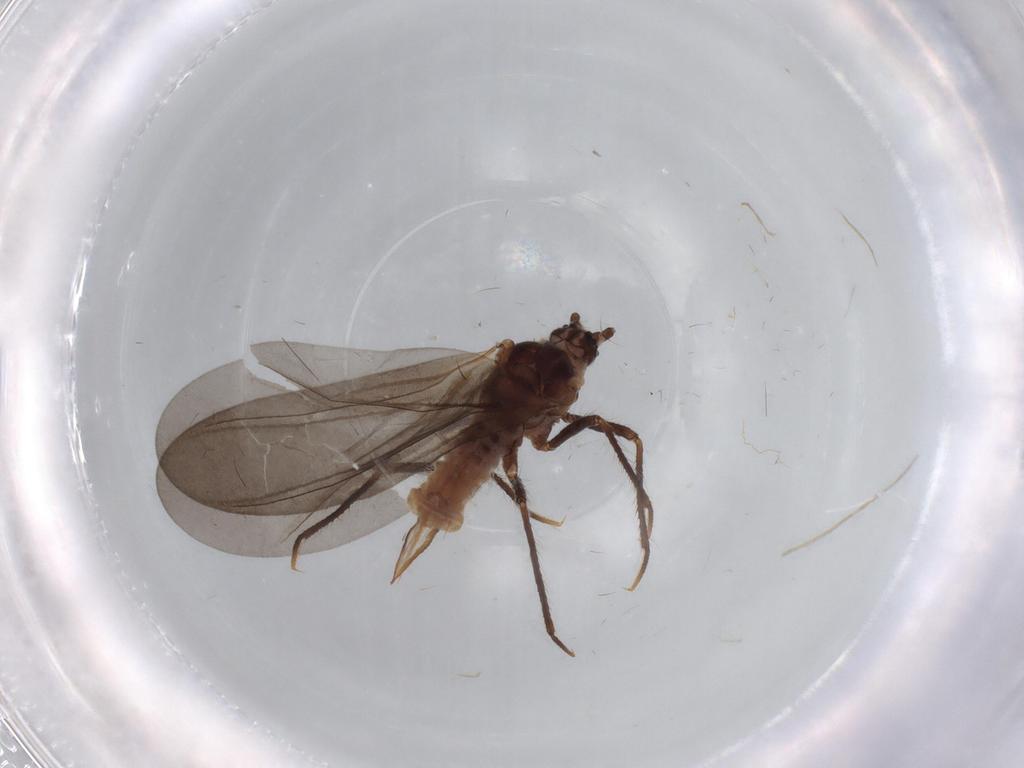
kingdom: Animalia
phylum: Arthropoda
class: Insecta
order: Hemiptera
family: Putoidae
